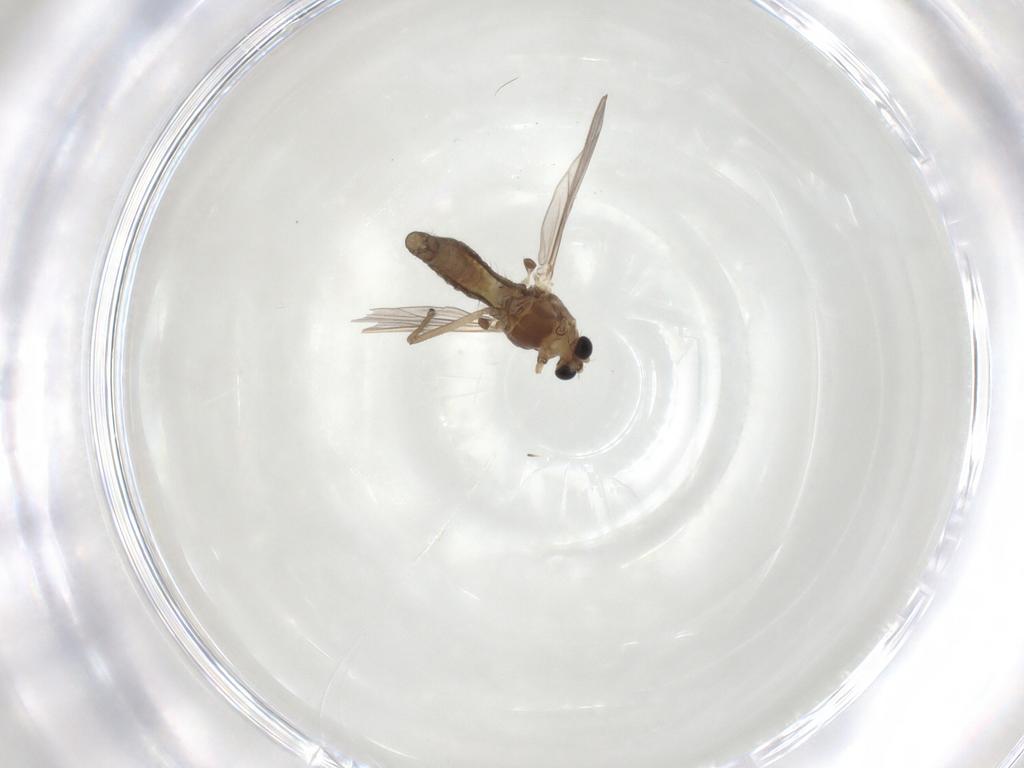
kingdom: Animalia
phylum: Arthropoda
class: Insecta
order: Diptera
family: Chironomidae
